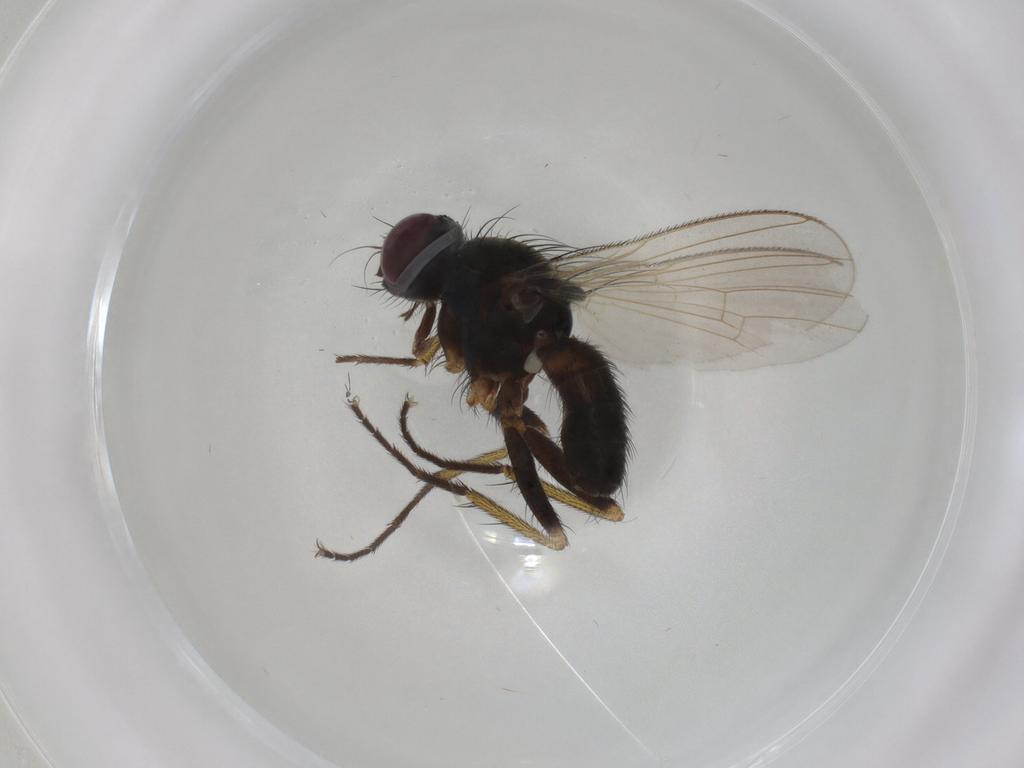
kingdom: Animalia
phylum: Arthropoda
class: Insecta
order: Diptera
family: Muscidae
